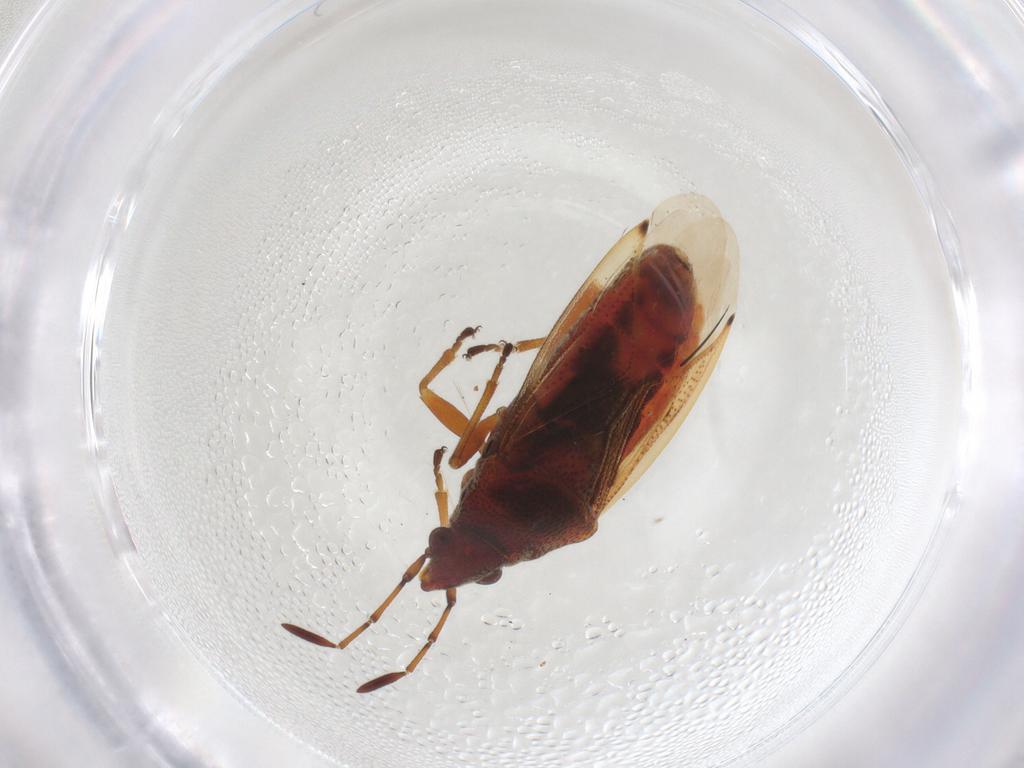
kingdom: Animalia
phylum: Arthropoda
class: Insecta
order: Hemiptera
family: Lygaeidae
